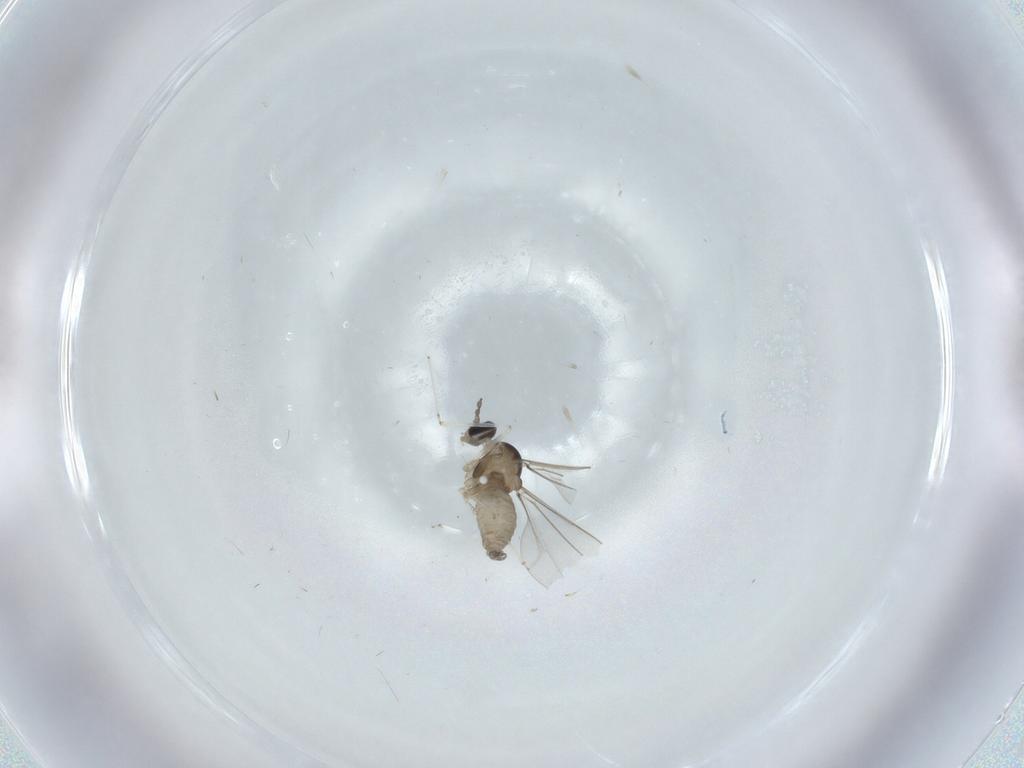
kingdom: Animalia
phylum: Arthropoda
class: Insecta
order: Diptera
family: Cecidomyiidae
